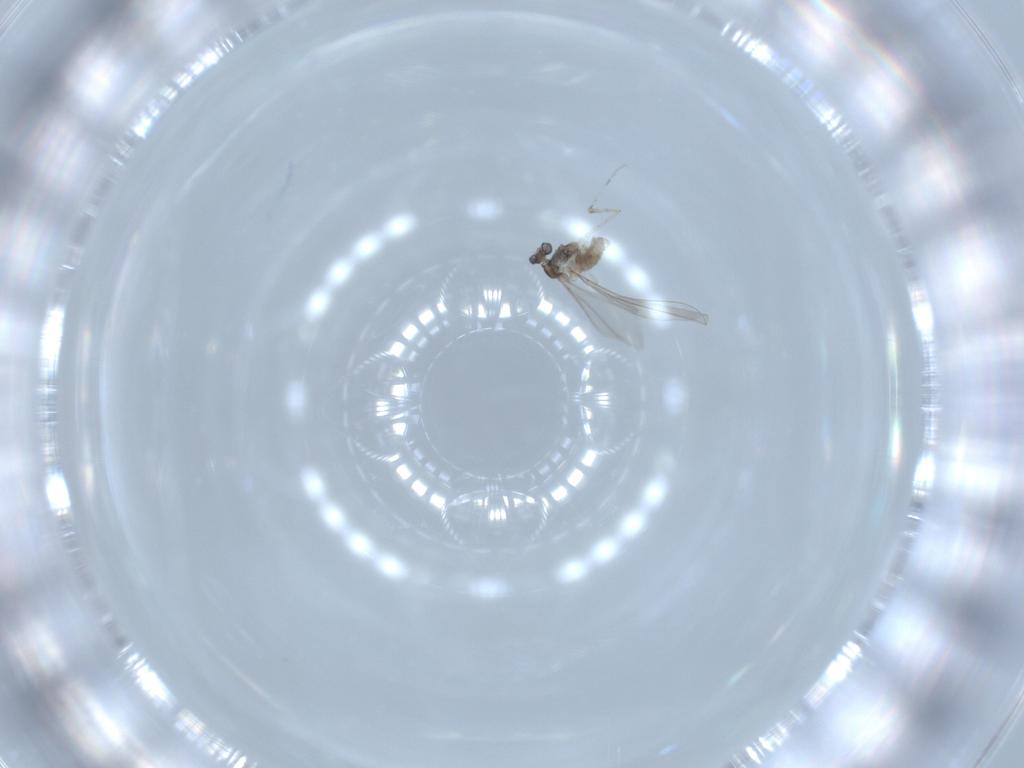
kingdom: Animalia
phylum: Arthropoda
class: Insecta
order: Diptera
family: Cecidomyiidae
